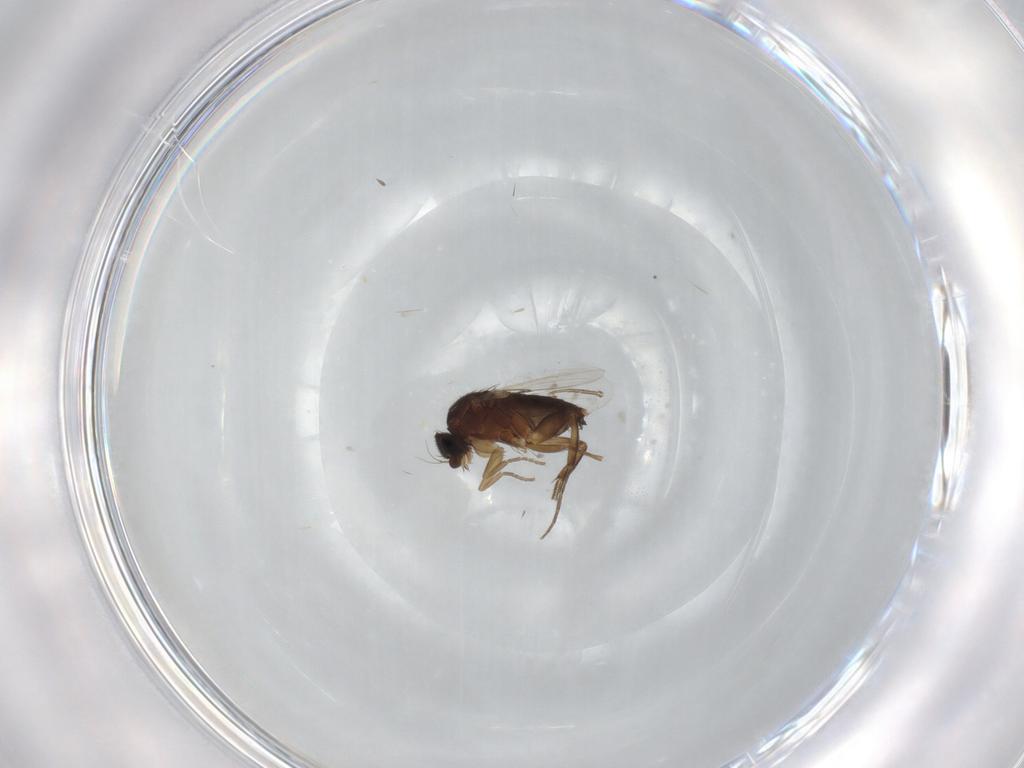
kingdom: Animalia
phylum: Arthropoda
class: Insecta
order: Diptera
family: Phoridae
